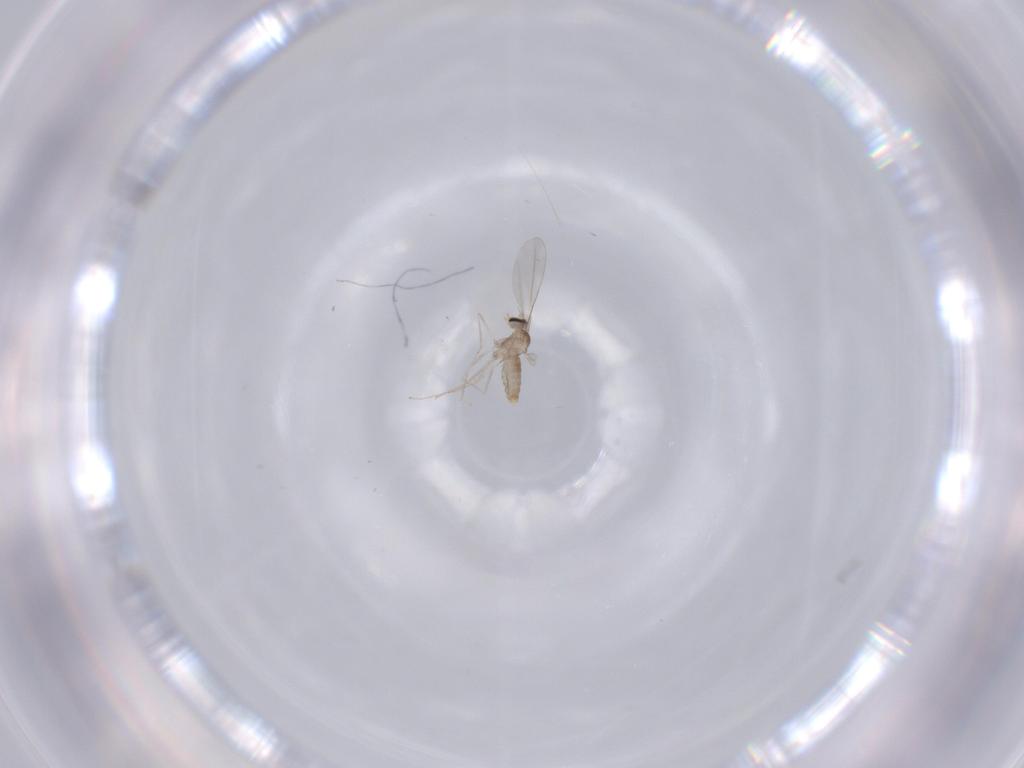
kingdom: Animalia
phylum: Arthropoda
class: Insecta
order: Diptera
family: Cecidomyiidae
